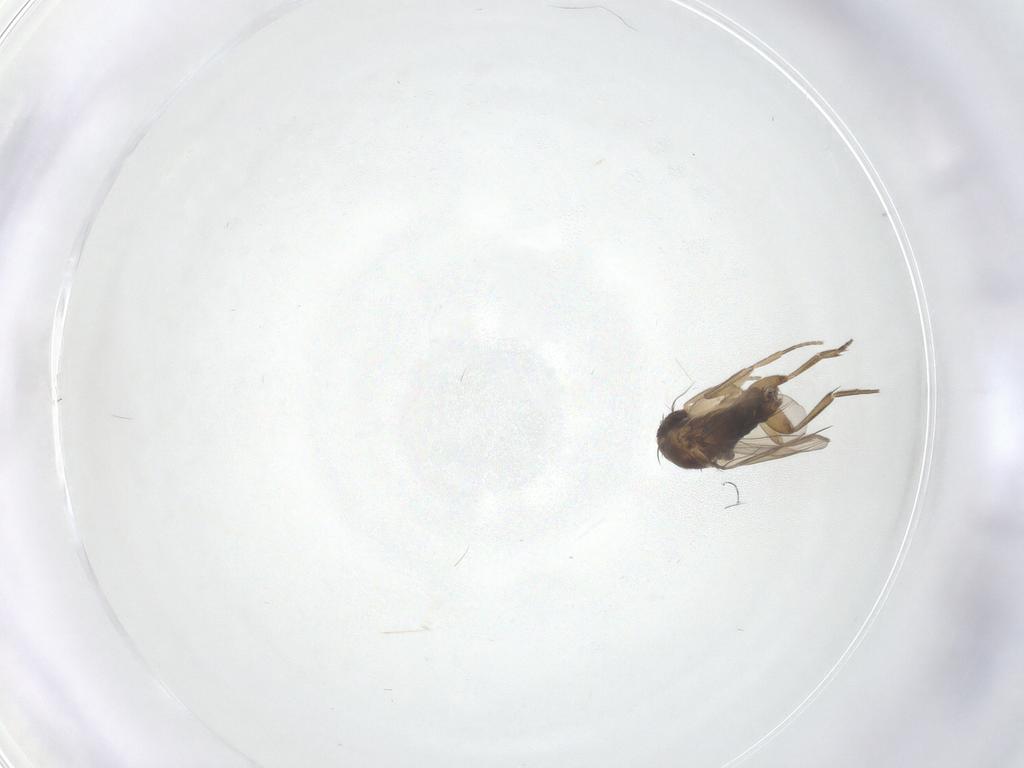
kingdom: Animalia
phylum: Arthropoda
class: Insecta
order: Diptera
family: Phoridae
